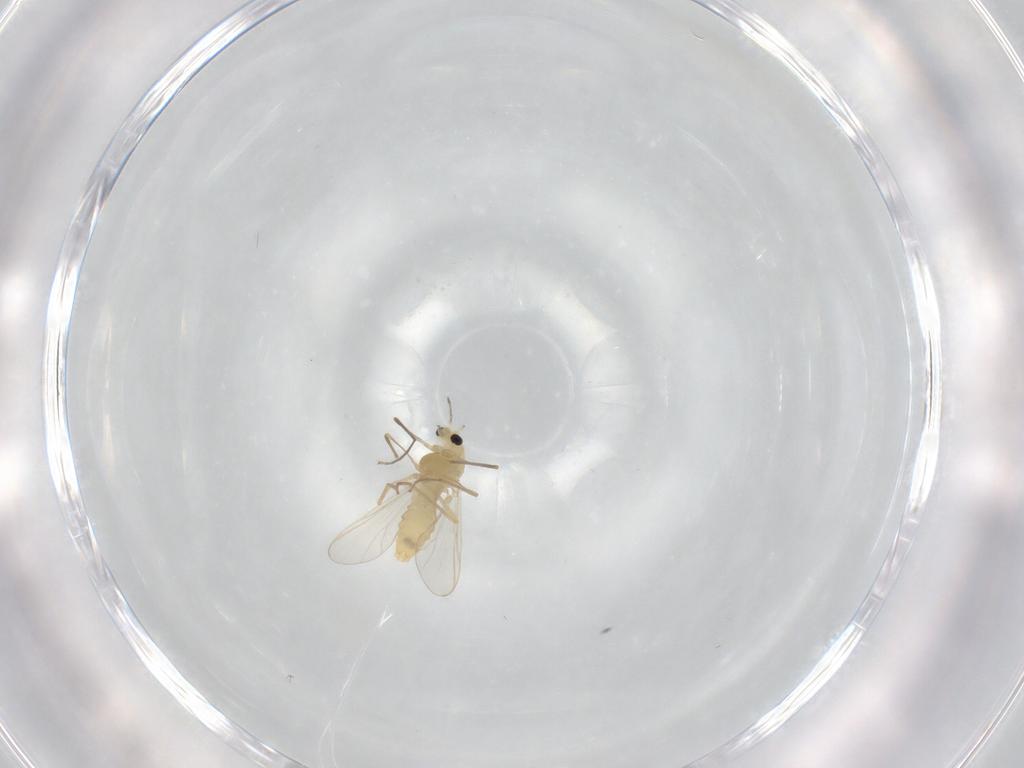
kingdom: Animalia
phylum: Arthropoda
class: Insecta
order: Diptera
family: Chironomidae
